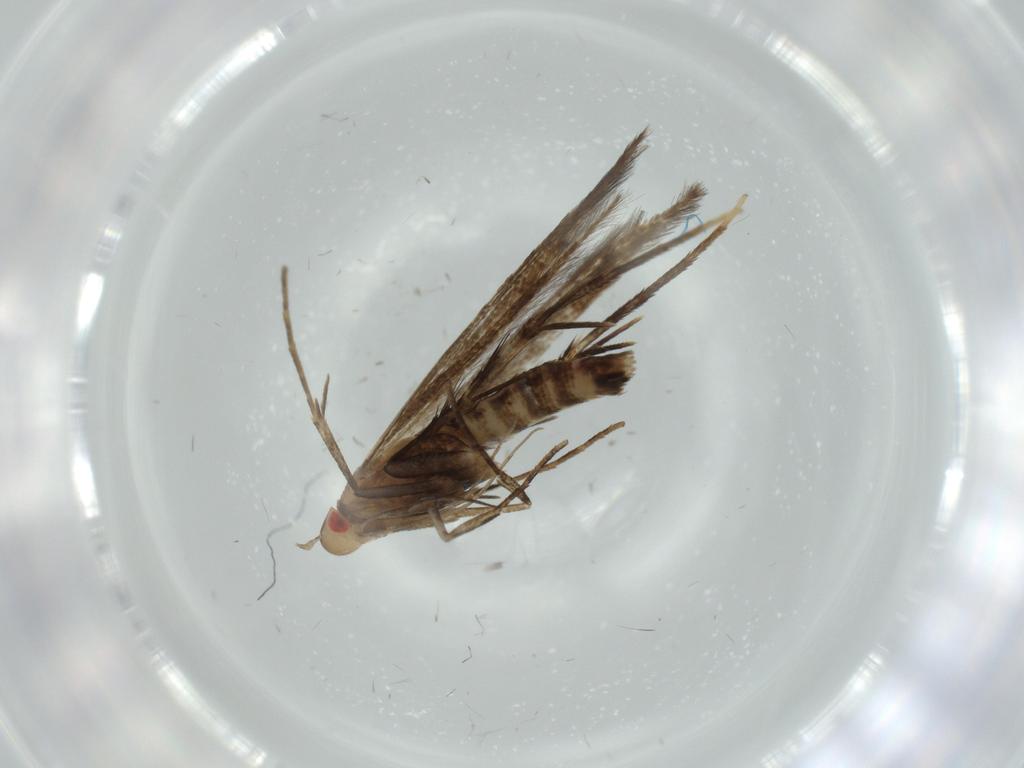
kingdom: Animalia
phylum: Arthropoda
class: Insecta
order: Lepidoptera
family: Cosmopterigidae
